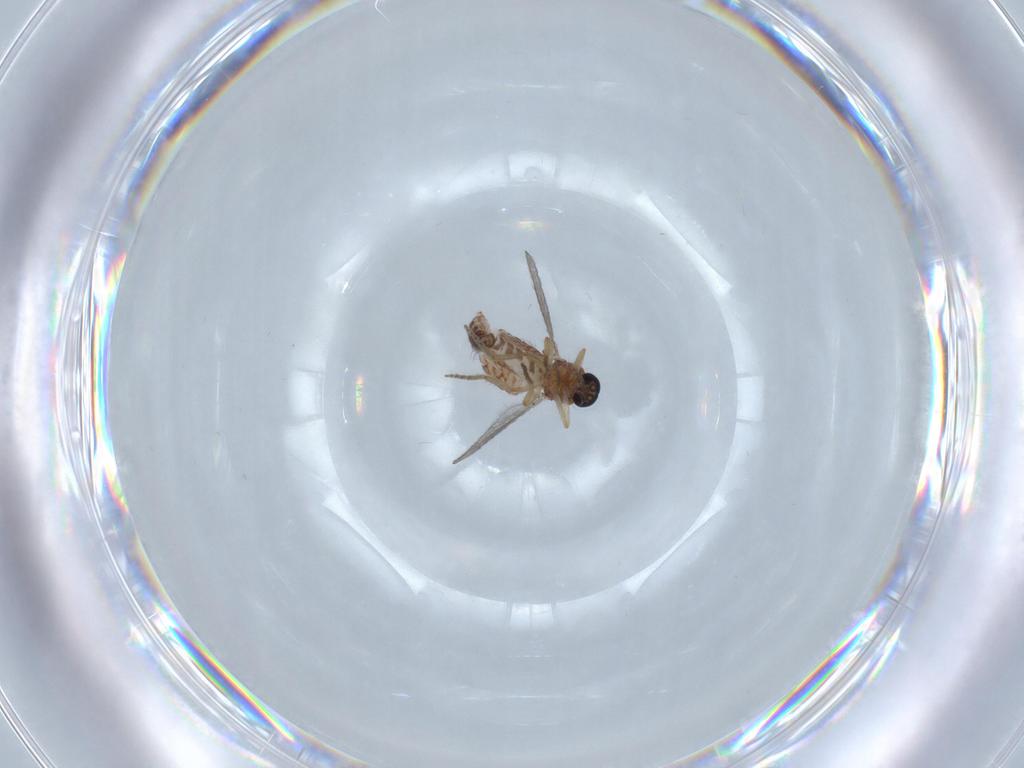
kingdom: Animalia
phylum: Arthropoda
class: Insecta
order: Diptera
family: Ceratopogonidae
